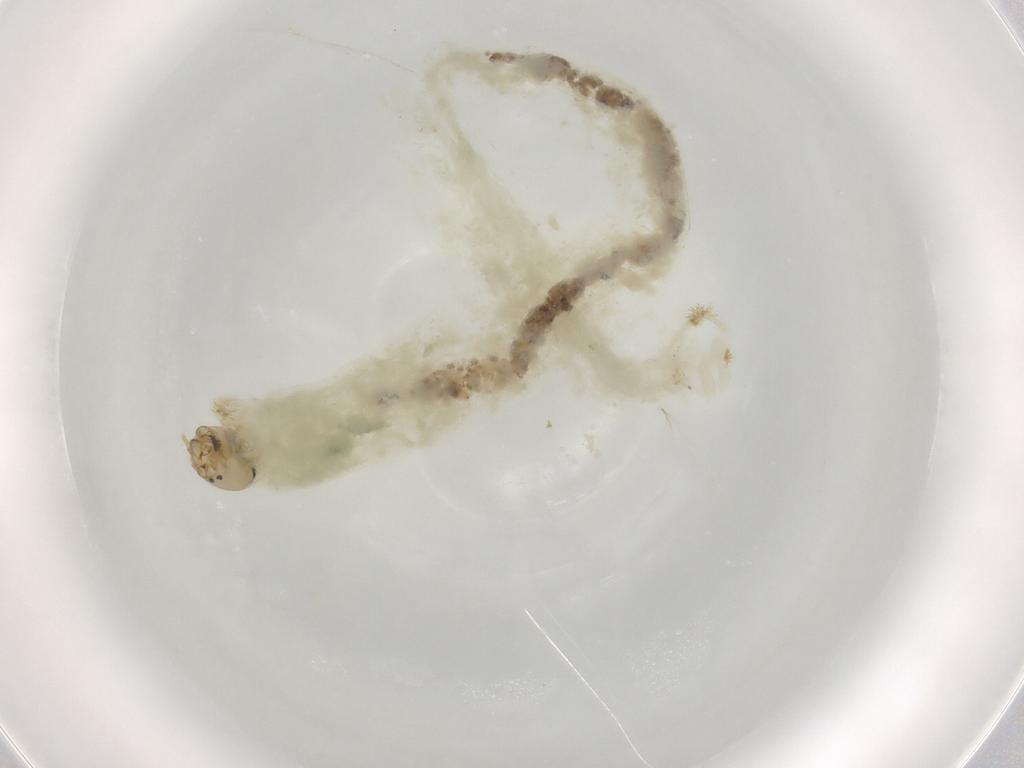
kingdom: Animalia
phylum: Arthropoda
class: Insecta
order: Diptera
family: Chironomidae
